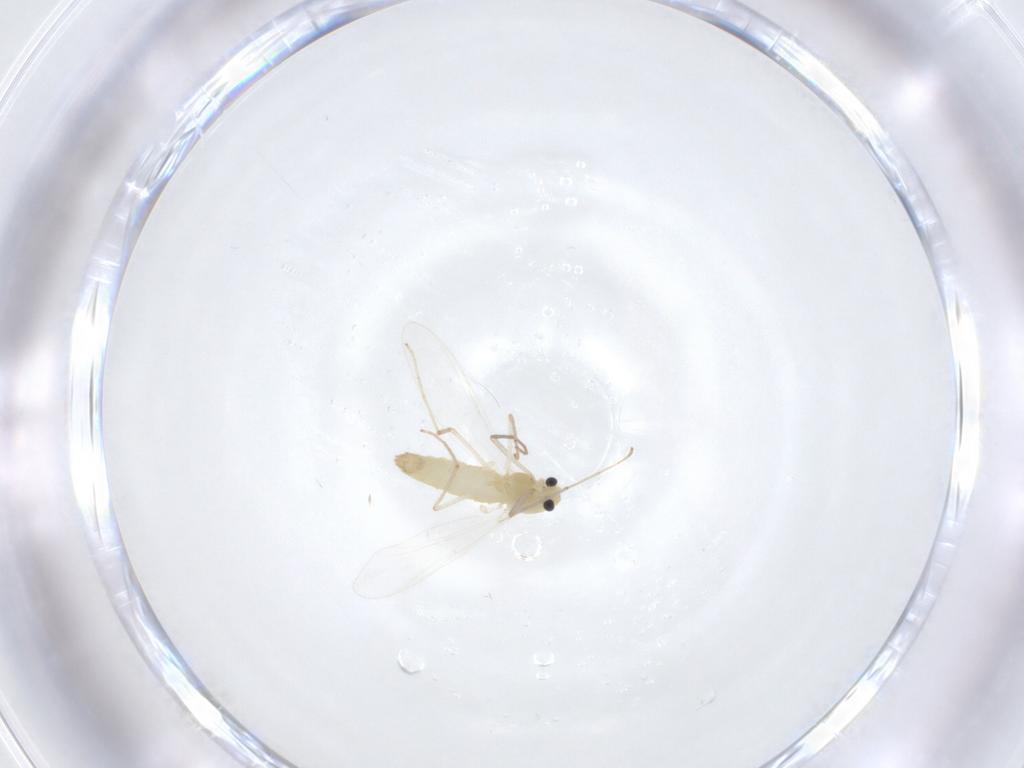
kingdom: Animalia
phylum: Arthropoda
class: Insecta
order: Diptera
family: Chironomidae
